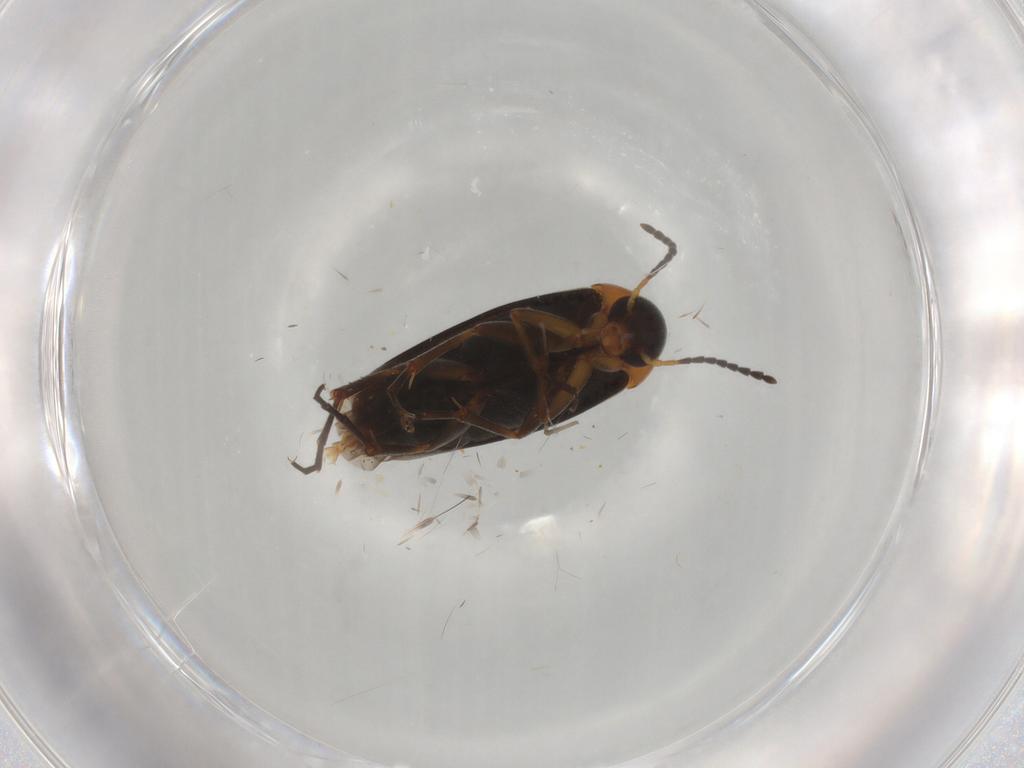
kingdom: Animalia
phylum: Arthropoda
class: Insecta
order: Coleoptera
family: Scraptiidae
